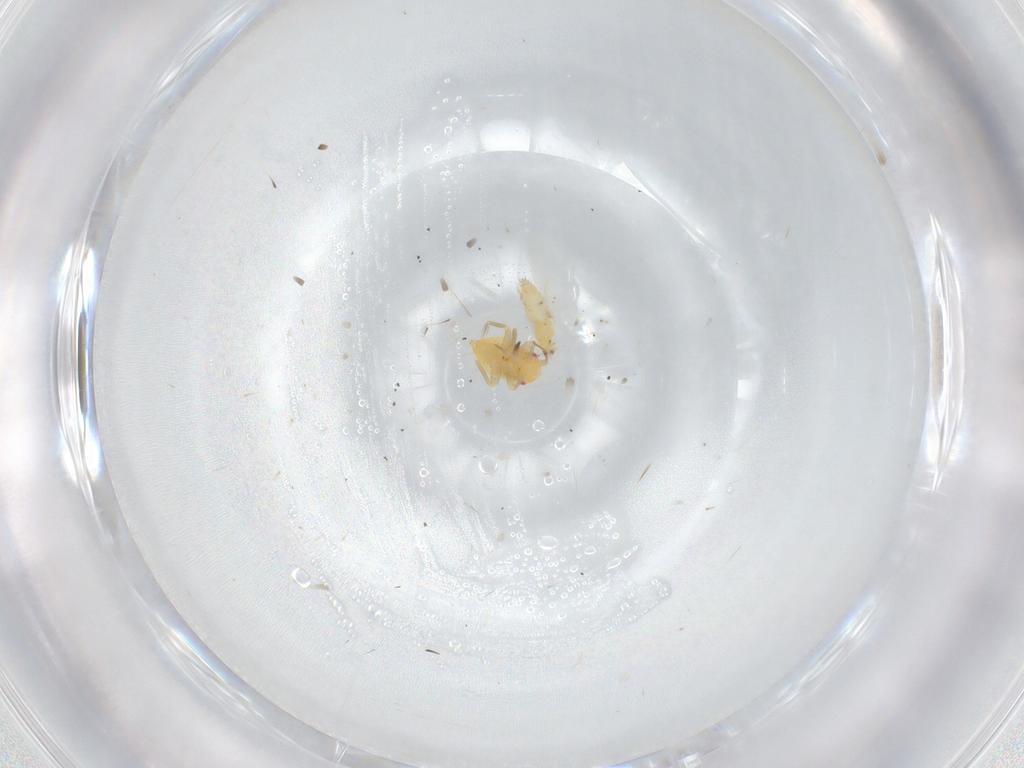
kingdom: Animalia
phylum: Arthropoda
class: Insecta
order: Hemiptera
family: Miridae
